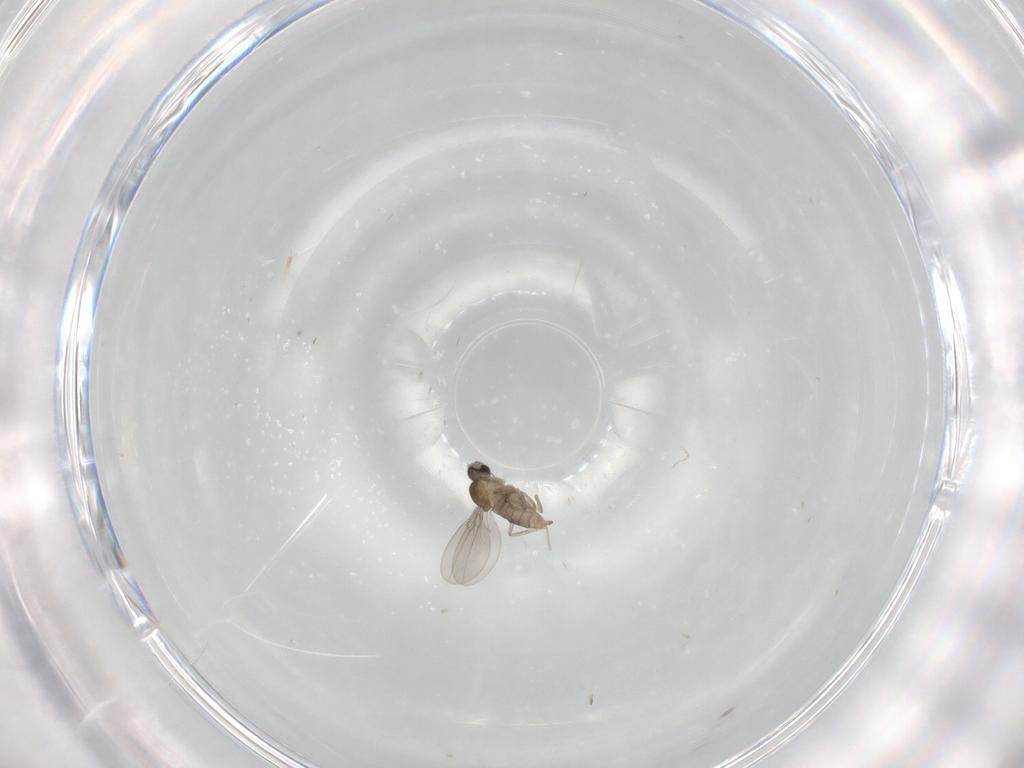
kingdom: Animalia
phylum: Arthropoda
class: Insecta
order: Diptera
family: Cecidomyiidae
